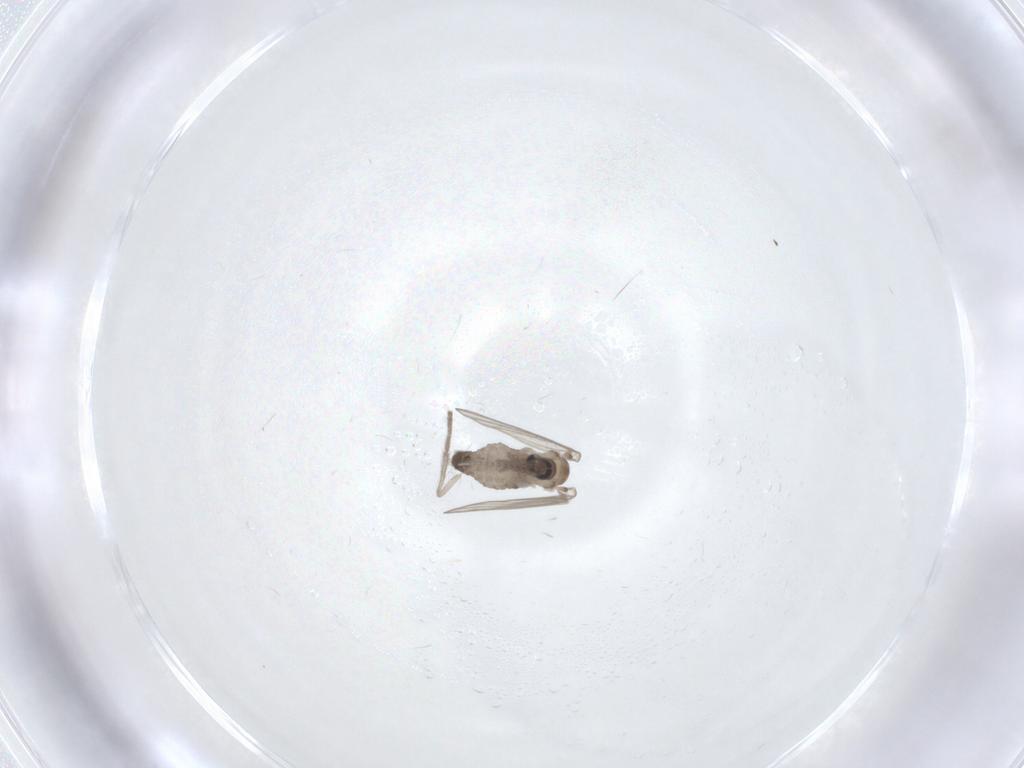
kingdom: Animalia
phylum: Arthropoda
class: Insecta
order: Diptera
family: Psychodidae
